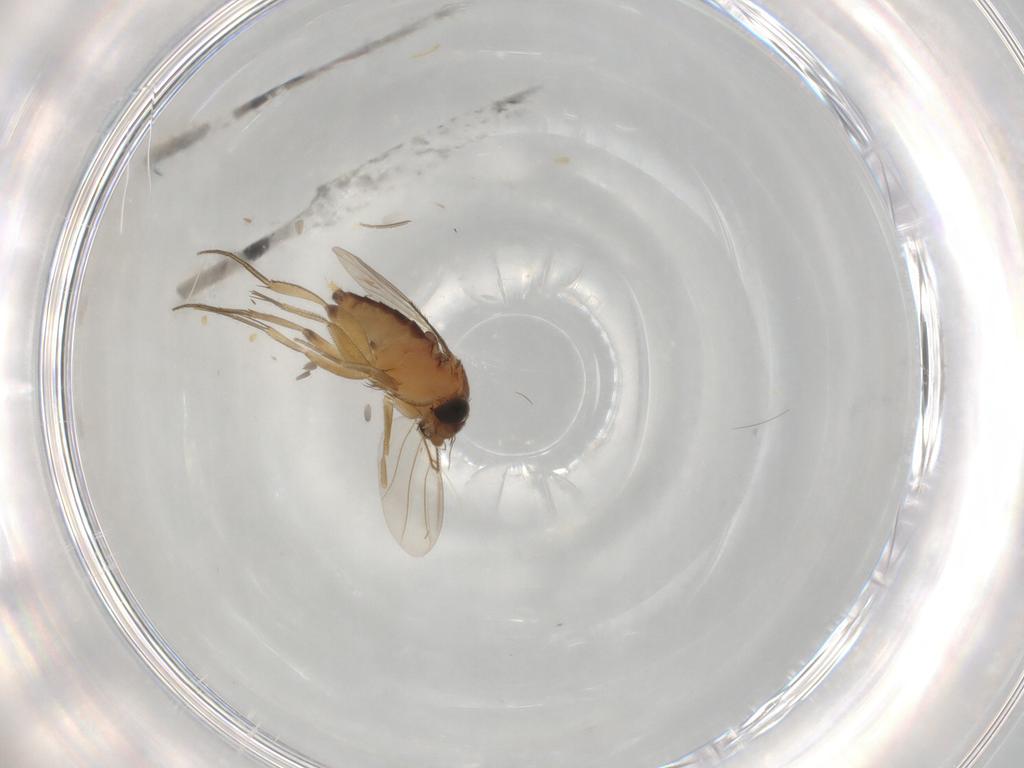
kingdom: Animalia
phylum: Arthropoda
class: Insecta
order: Diptera
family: Phoridae
